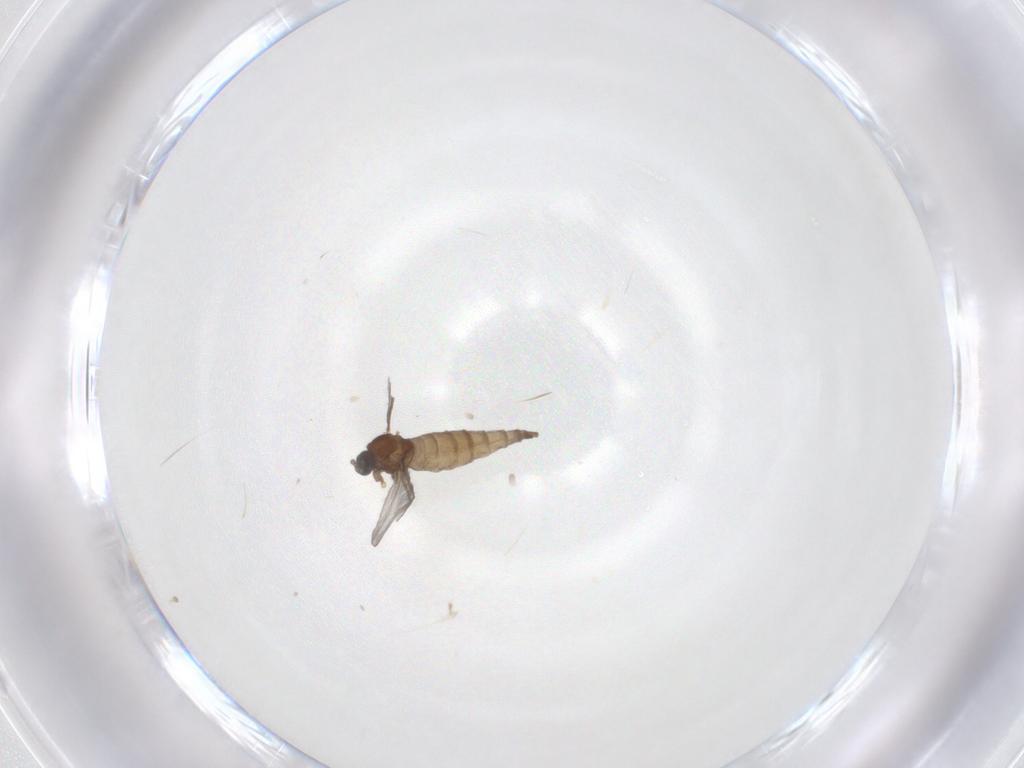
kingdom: Animalia
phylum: Arthropoda
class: Insecta
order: Diptera
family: Sciaridae
